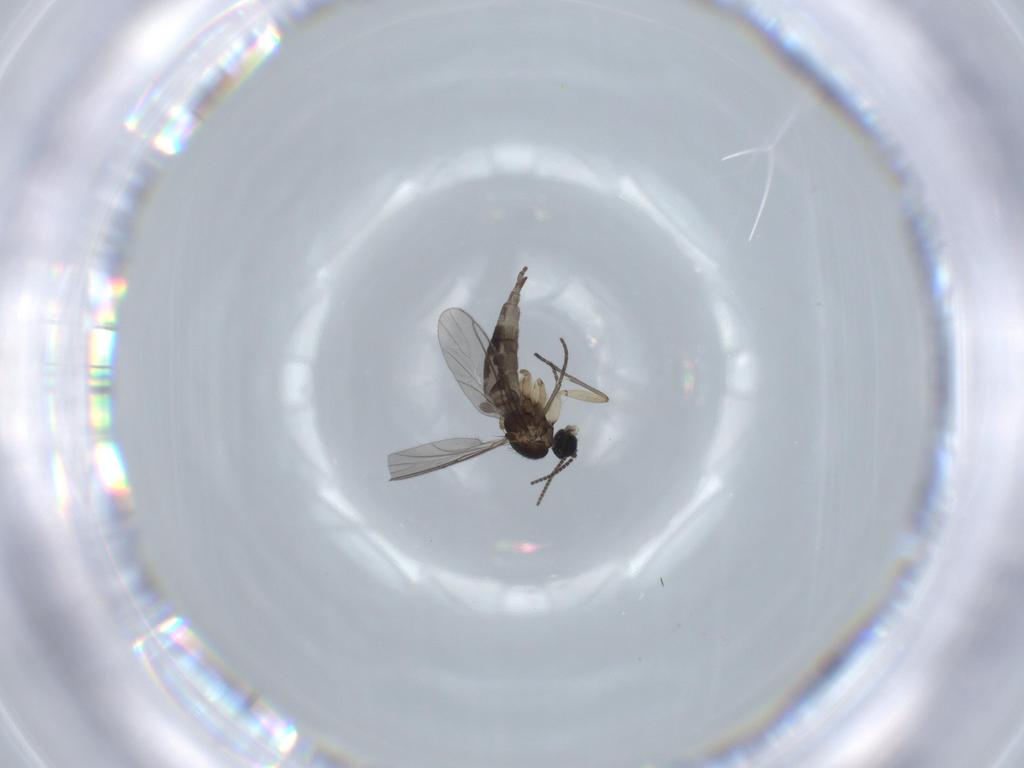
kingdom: Animalia
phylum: Arthropoda
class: Insecta
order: Diptera
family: Sciaridae
